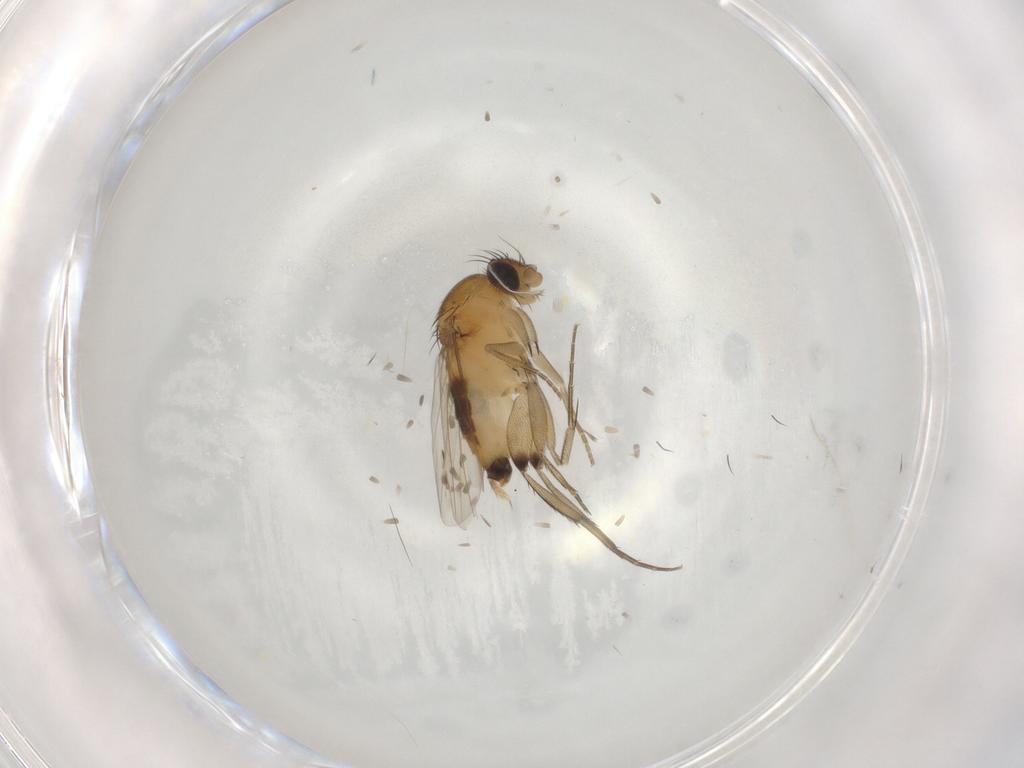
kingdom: Animalia
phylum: Arthropoda
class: Insecta
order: Diptera
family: Phoridae
